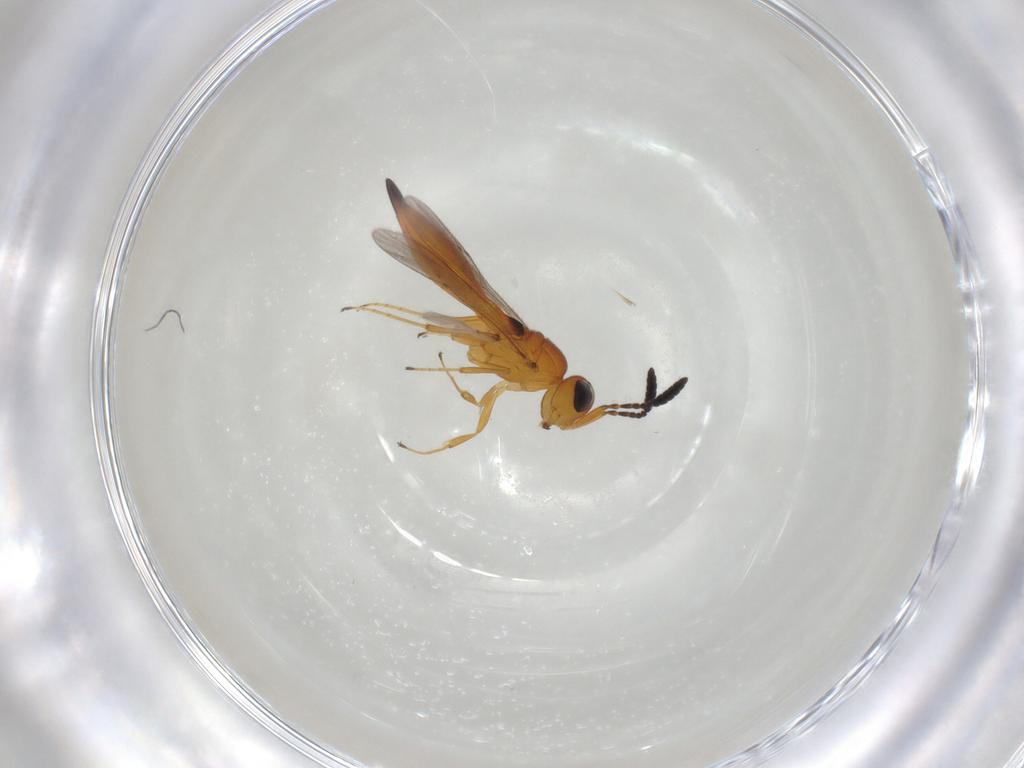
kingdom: Animalia
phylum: Arthropoda
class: Insecta
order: Hymenoptera
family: Scelionidae
